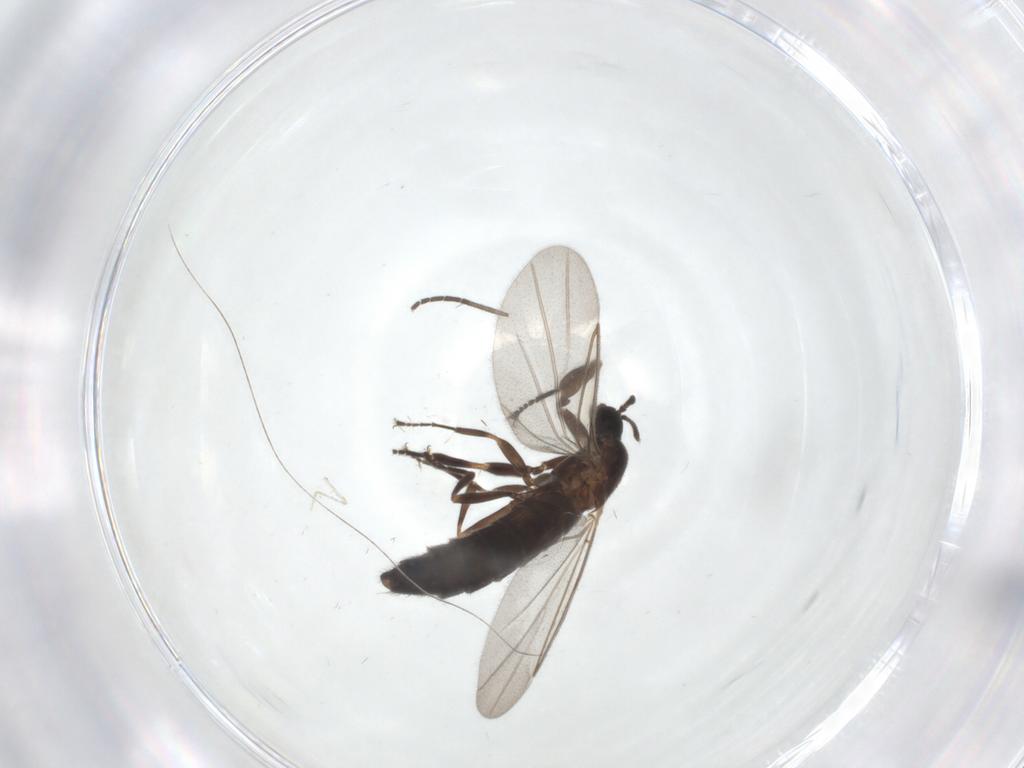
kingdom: Animalia
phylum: Arthropoda
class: Insecta
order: Diptera
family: Scatopsidae
